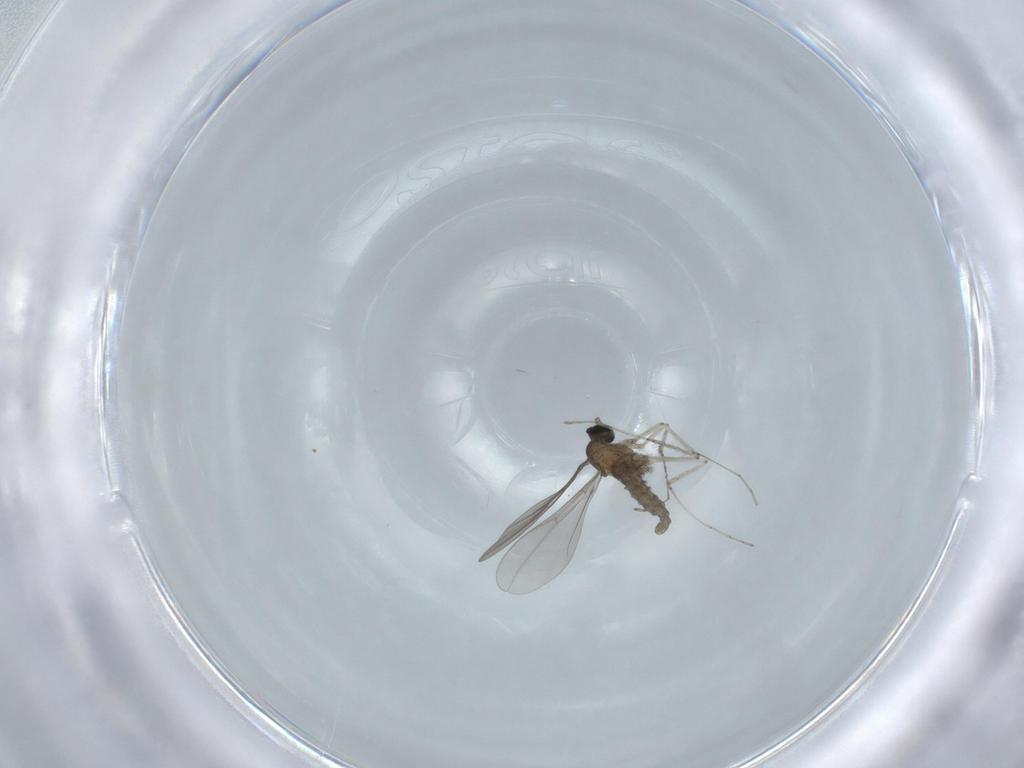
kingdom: Animalia
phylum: Arthropoda
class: Insecta
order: Diptera
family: Cecidomyiidae
